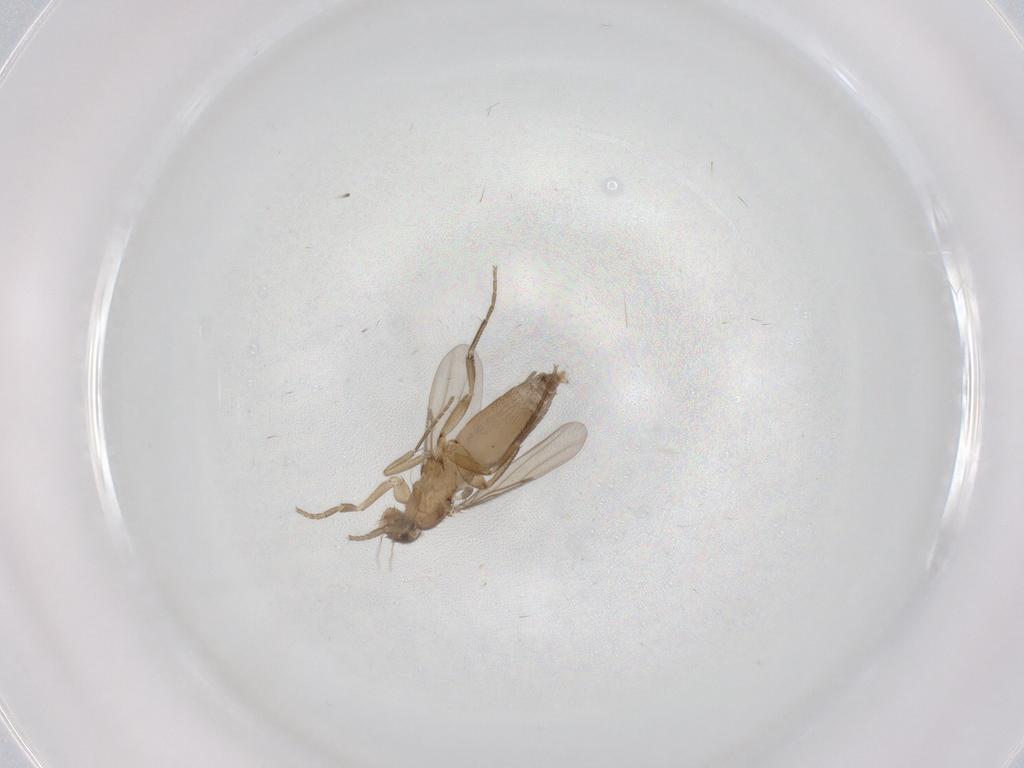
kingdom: Animalia
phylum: Arthropoda
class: Insecta
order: Diptera
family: Phoridae
